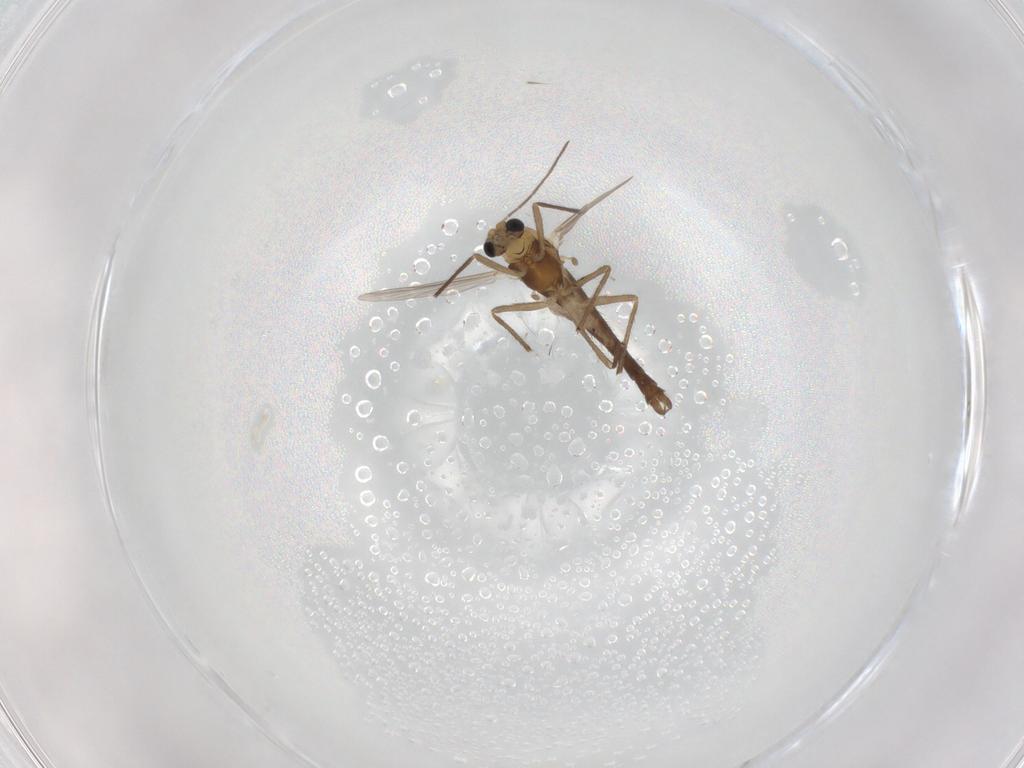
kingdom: Animalia
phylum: Arthropoda
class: Insecta
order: Diptera
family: Chironomidae
